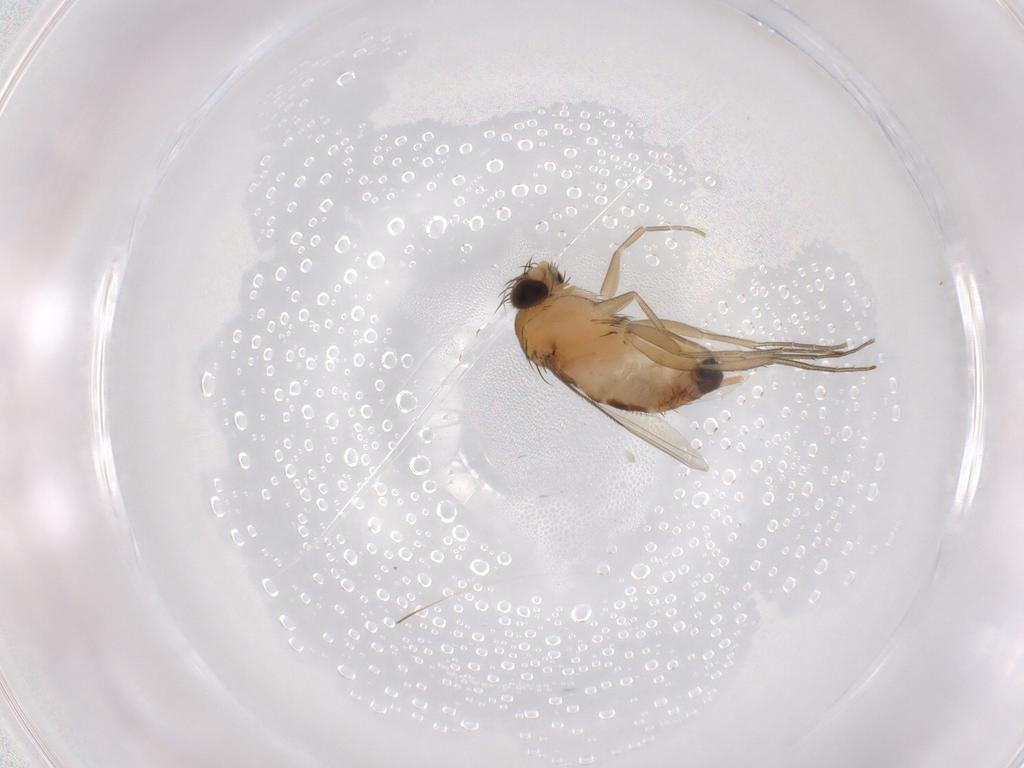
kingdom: Animalia
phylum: Arthropoda
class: Insecta
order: Diptera
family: Phoridae
